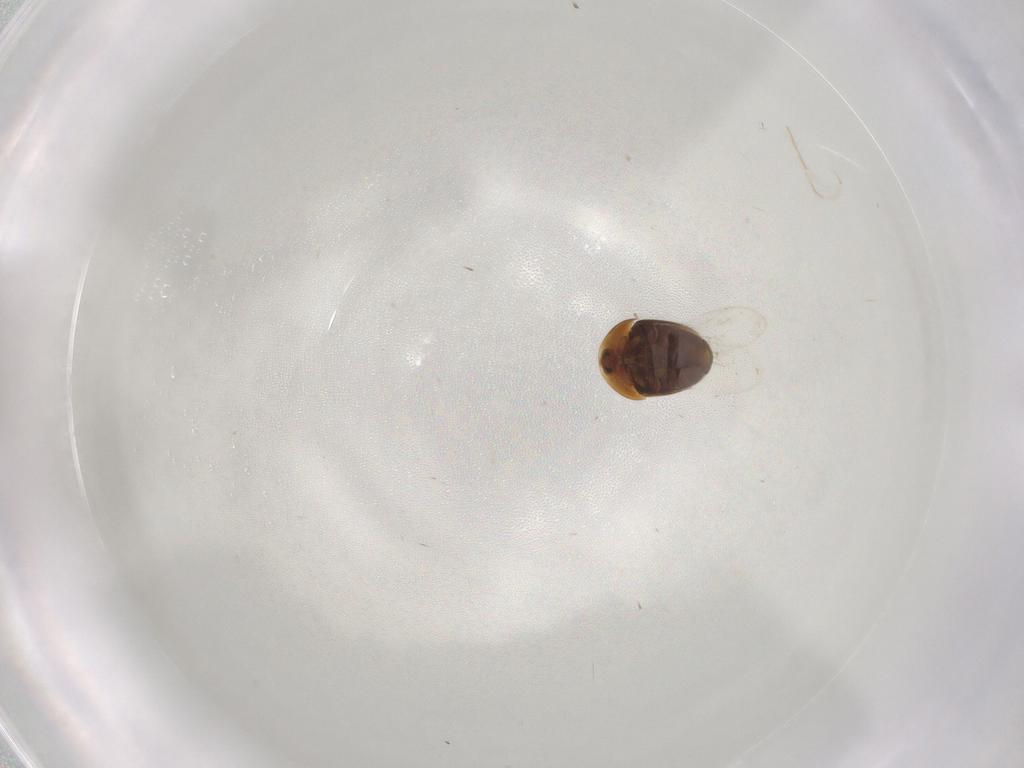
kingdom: Animalia
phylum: Arthropoda
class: Insecta
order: Coleoptera
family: Corylophidae
